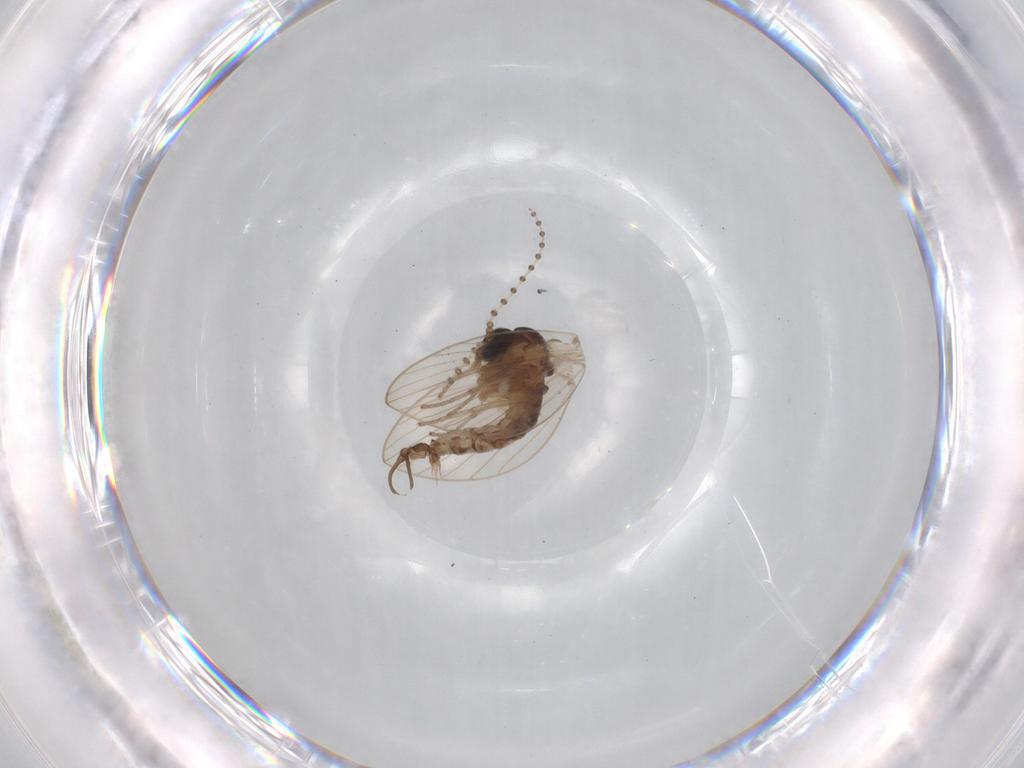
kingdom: Animalia
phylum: Arthropoda
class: Insecta
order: Diptera
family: Psychodidae
